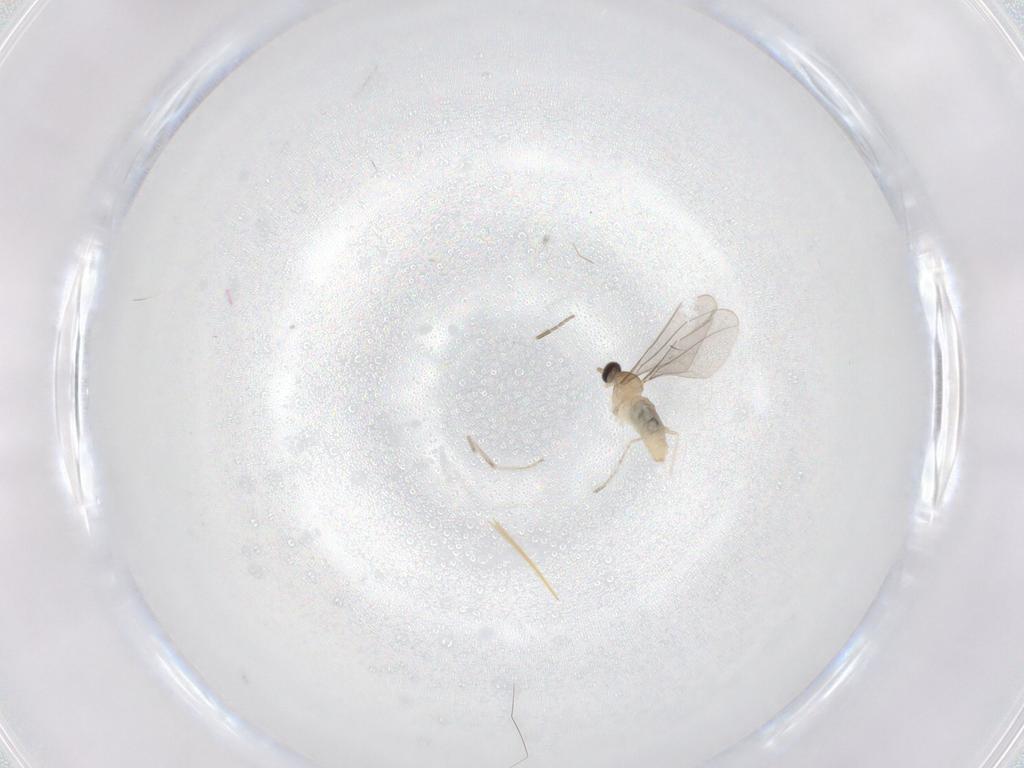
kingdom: Animalia
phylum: Arthropoda
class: Insecta
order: Diptera
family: Cecidomyiidae
